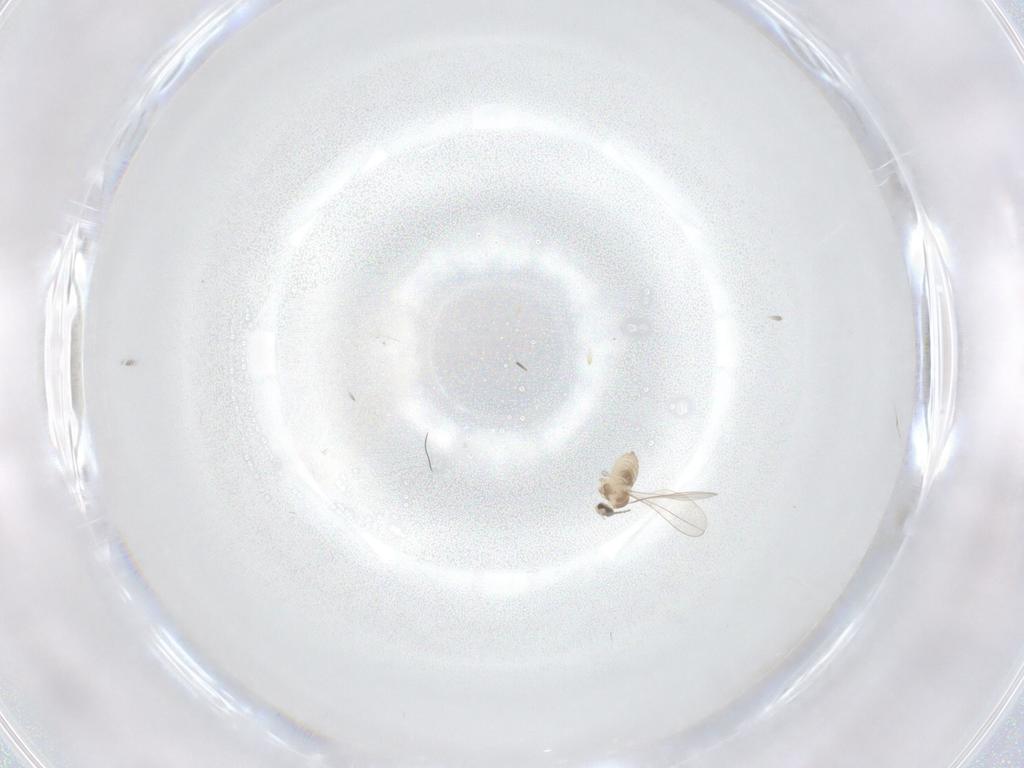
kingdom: Animalia
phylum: Arthropoda
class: Insecta
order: Diptera
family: Cecidomyiidae
